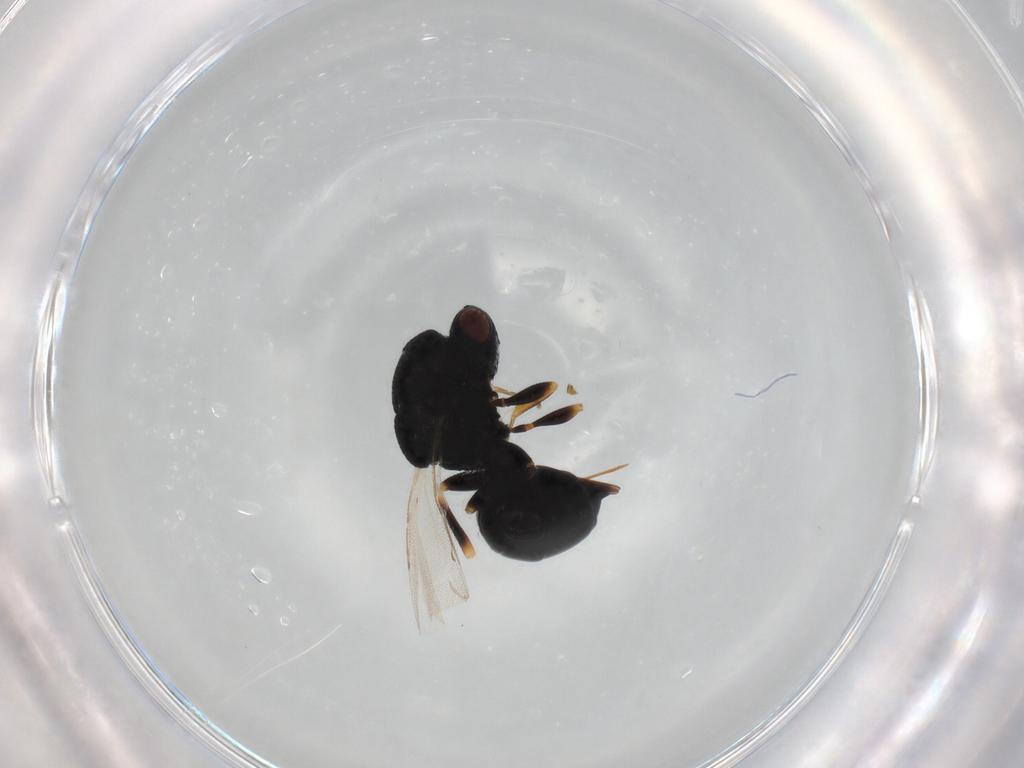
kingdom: Animalia
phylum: Arthropoda
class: Insecta
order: Hymenoptera
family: Eurytomidae
